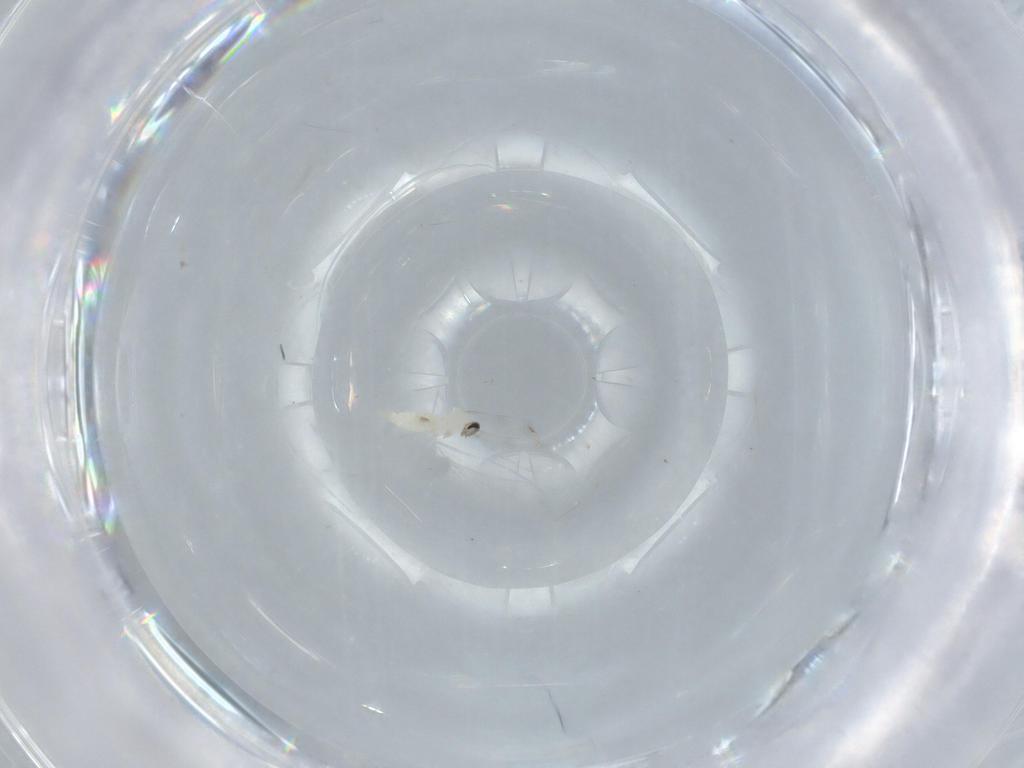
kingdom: Animalia
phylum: Arthropoda
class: Insecta
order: Diptera
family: Cecidomyiidae
